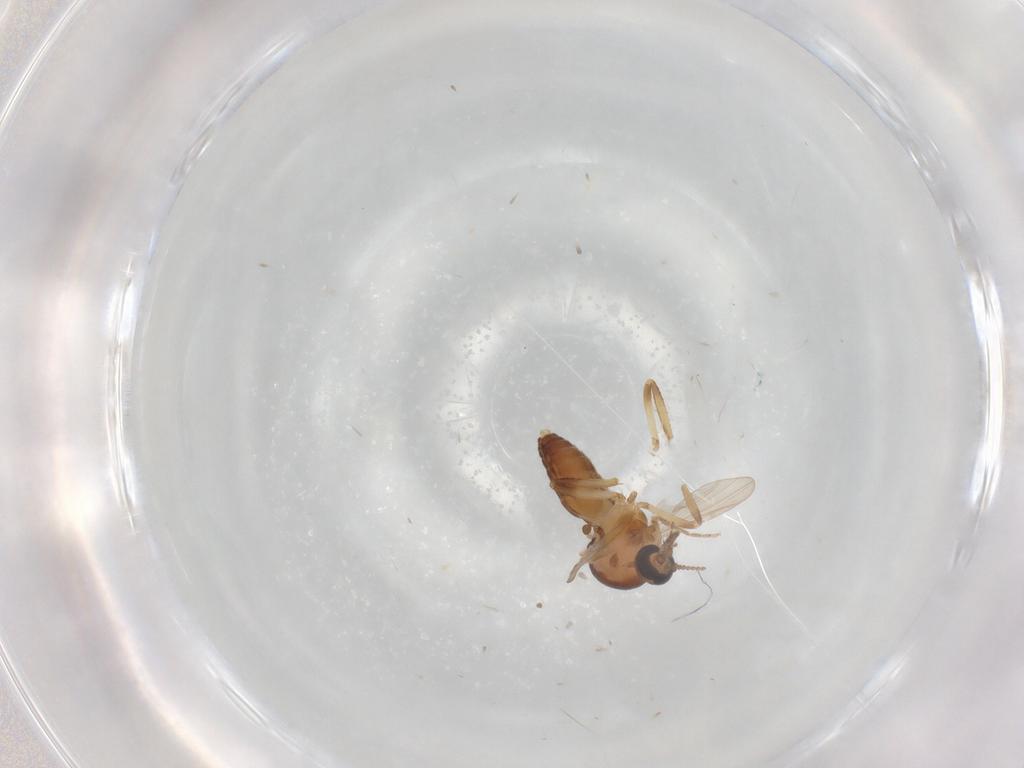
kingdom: Animalia
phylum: Arthropoda
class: Insecta
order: Diptera
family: Ceratopogonidae
